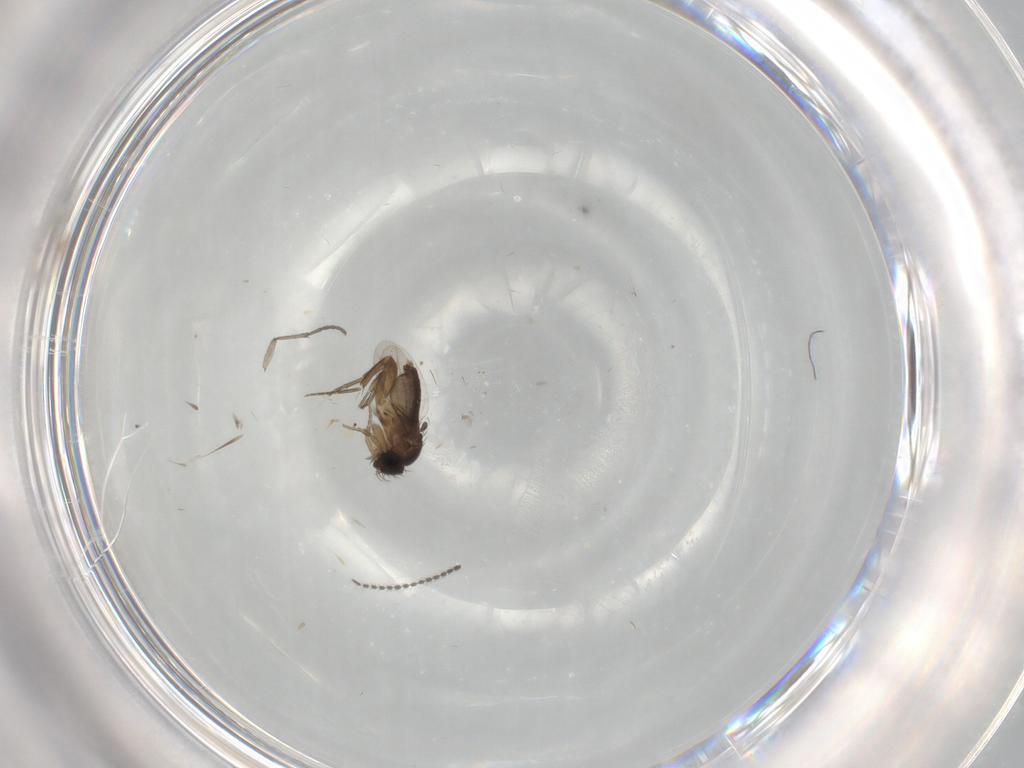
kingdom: Animalia
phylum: Arthropoda
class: Insecta
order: Diptera
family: Phoridae
